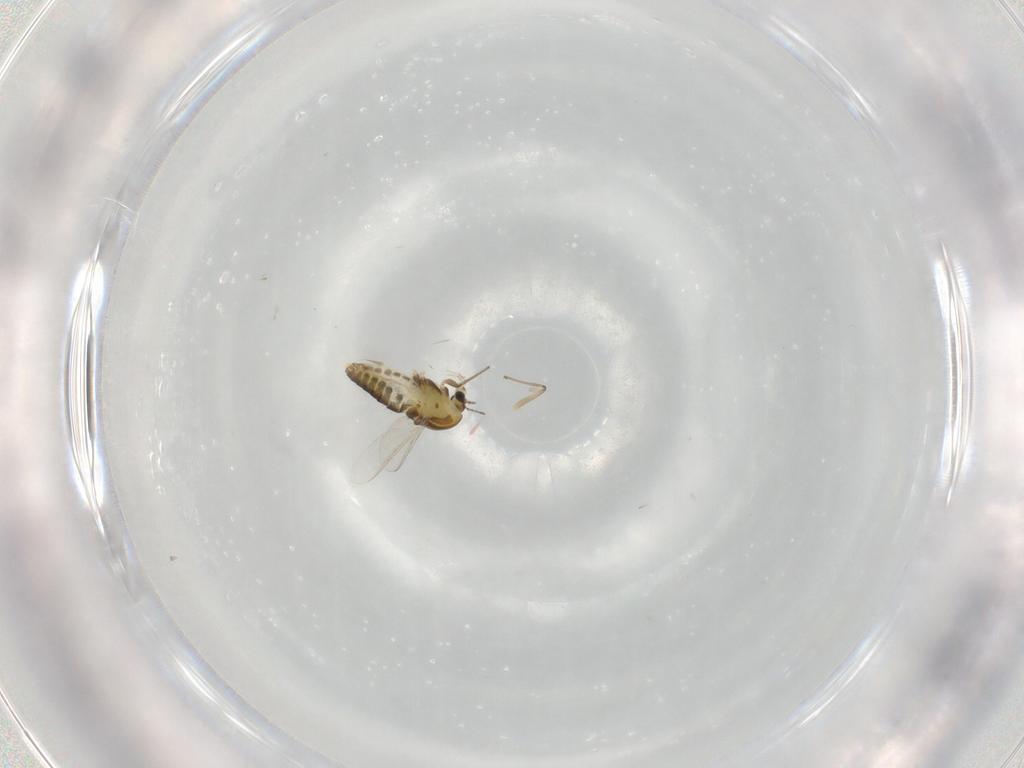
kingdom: Animalia
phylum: Arthropoda
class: Insecta
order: Diptera
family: Chironomidae
